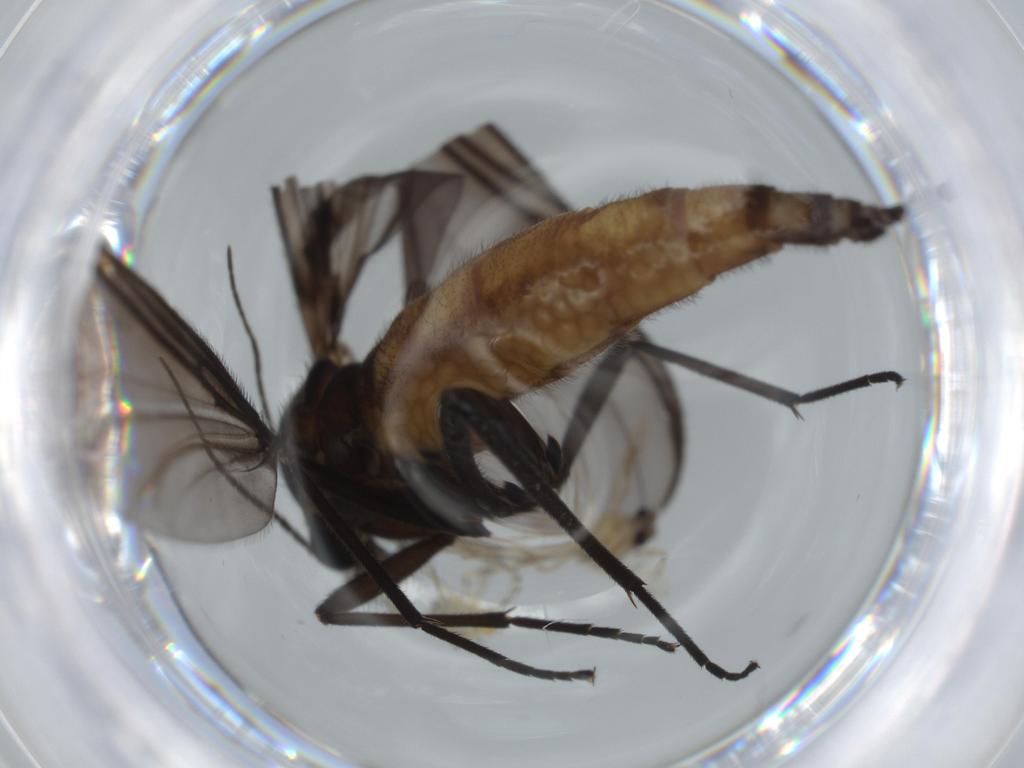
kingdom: Animalia
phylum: Arthropoda
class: Insecta
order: Diptera
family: Ceratopogonidae
